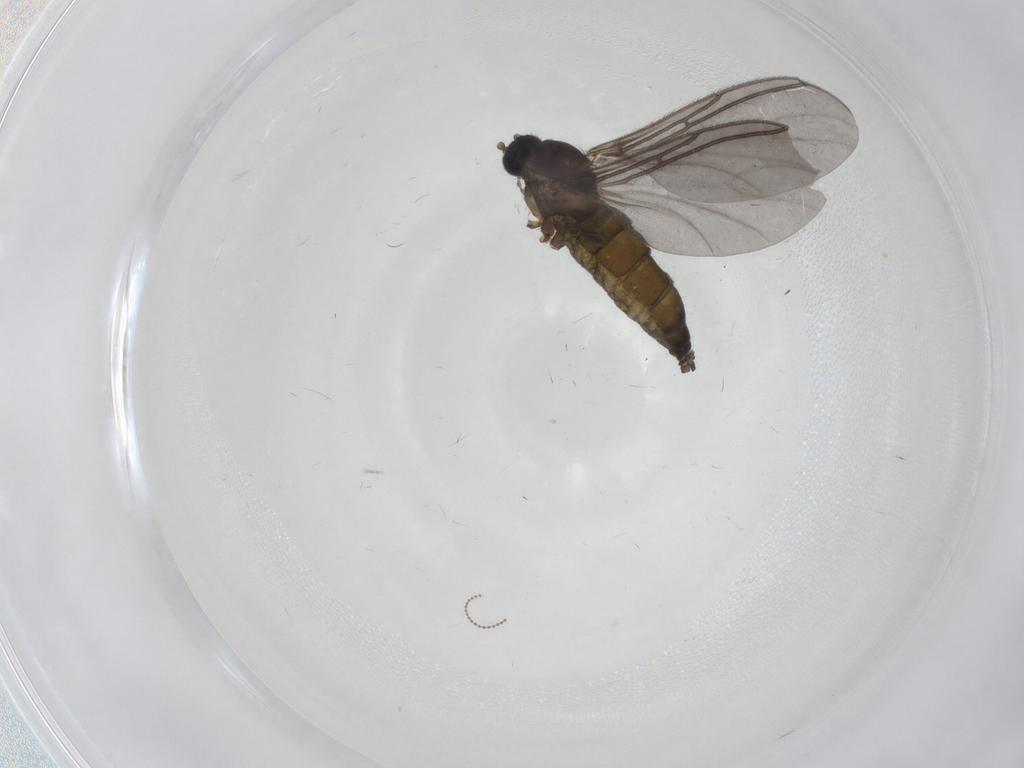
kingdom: Animalia
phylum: Arthropoda
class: Insecta
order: Diptera
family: Sciaridae
